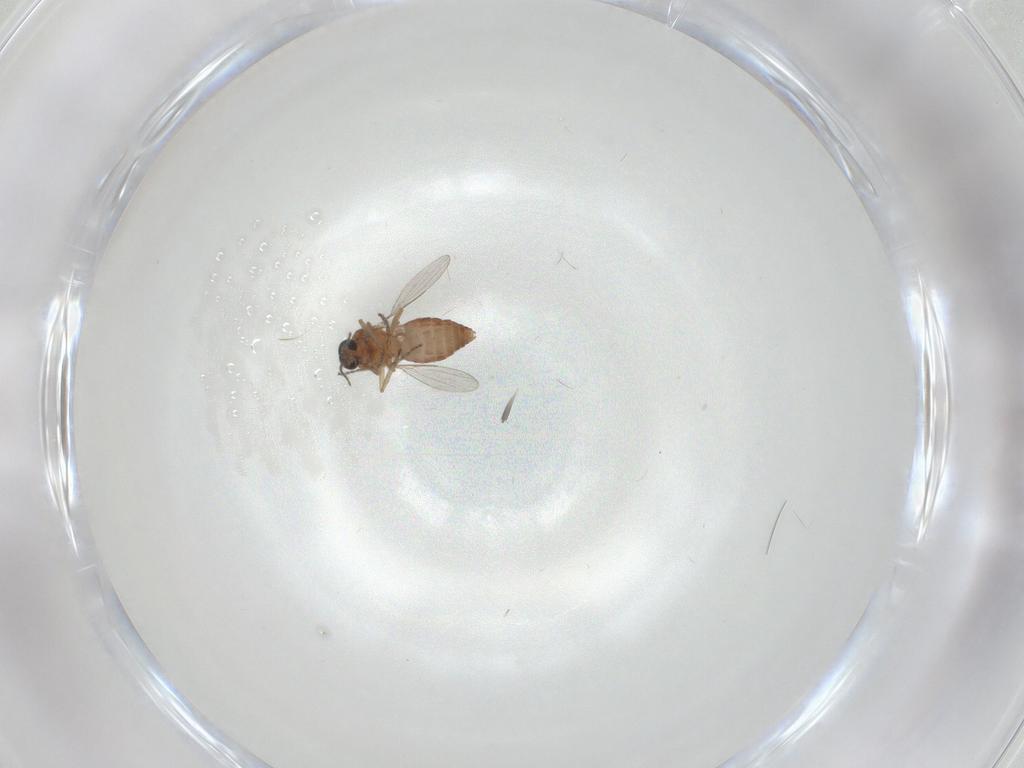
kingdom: Animalia
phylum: Arthropoda
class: Insecta
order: Diptera
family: Ceratopogonidae
